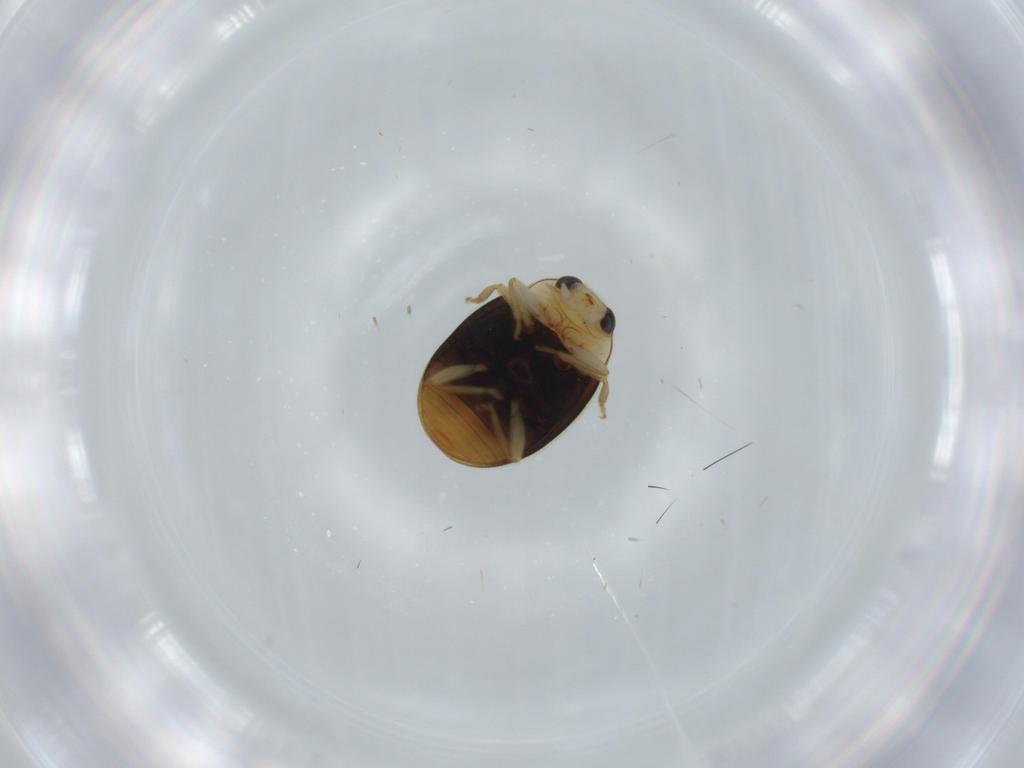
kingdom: Animalia
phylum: Arthropoda
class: Insecta
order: Coleoptera
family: Coccinellidae
